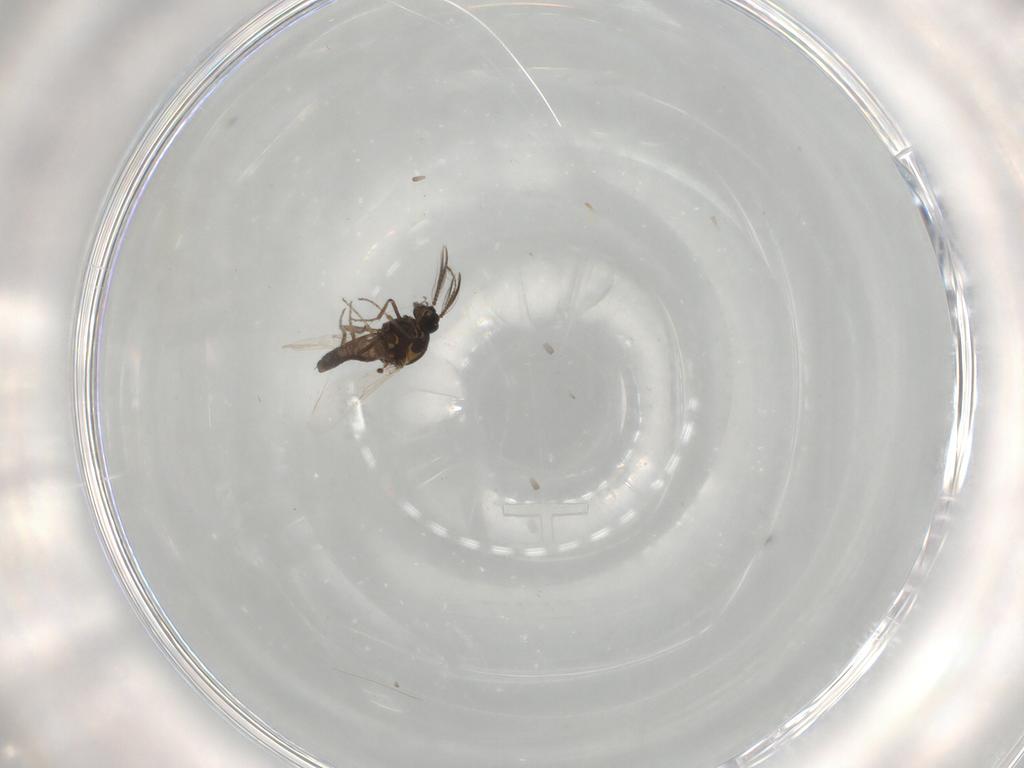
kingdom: Animalia
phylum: Arthropoda
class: Insecta
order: Diptera
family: Ceratopogonidae
